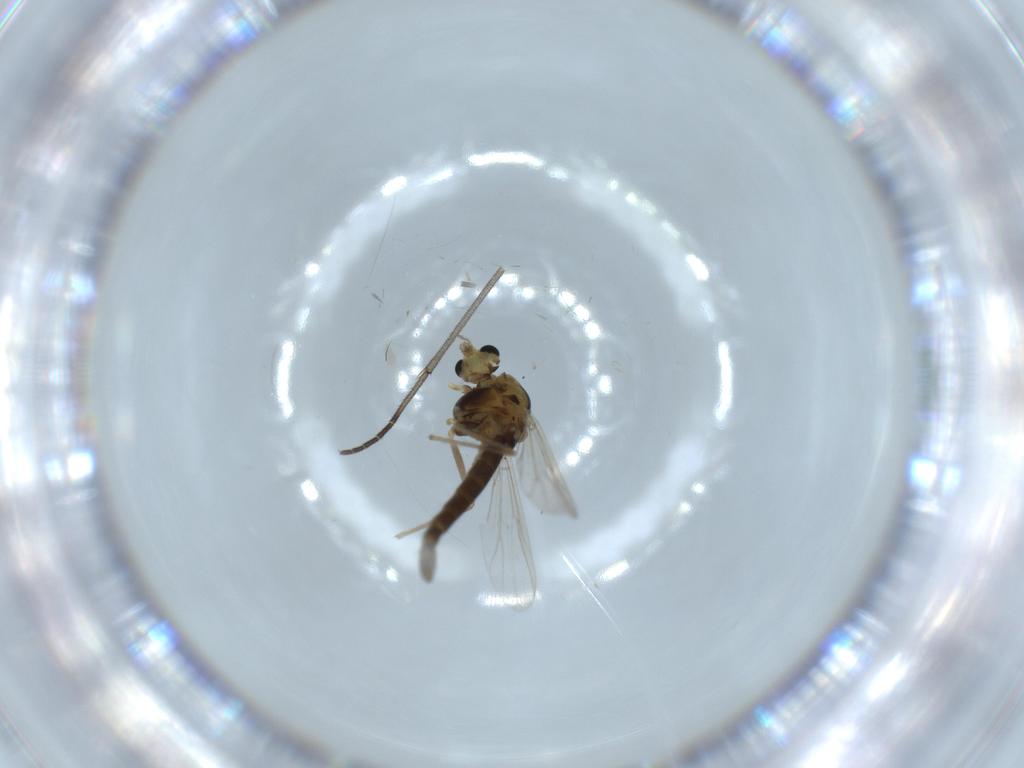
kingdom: Animalia
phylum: Arthropoda
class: Insecta
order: Diptera
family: Chironomidae
